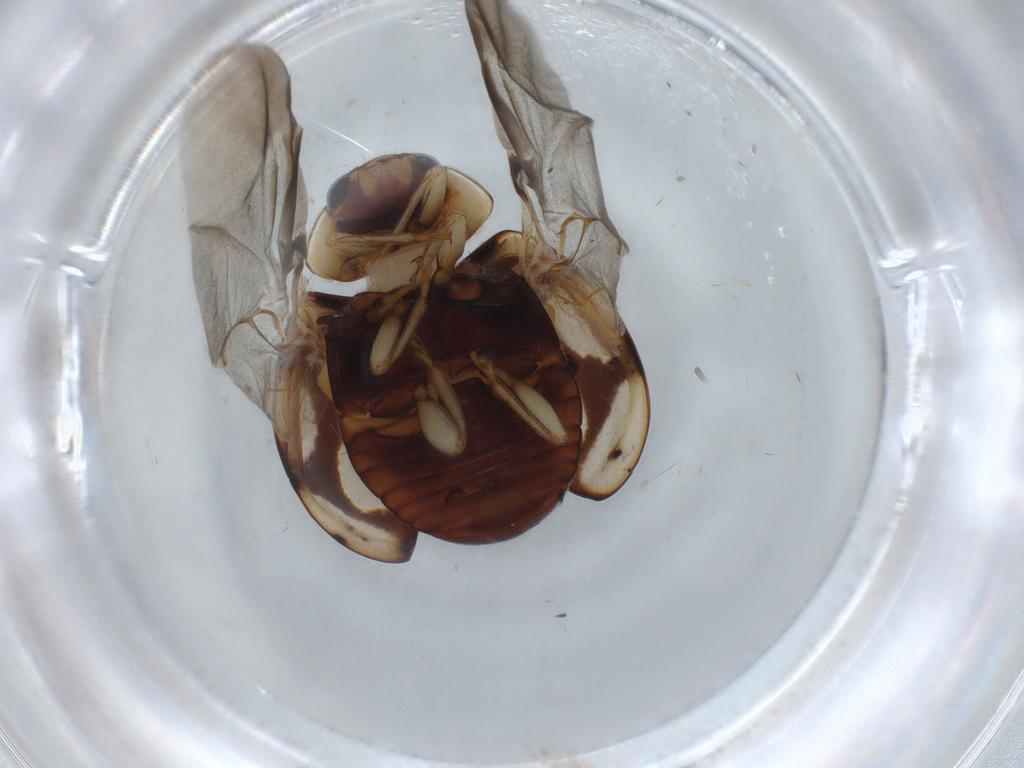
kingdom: Animalia
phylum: Arthropoda
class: Insecta
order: Coleoptera
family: Coccinellidae
